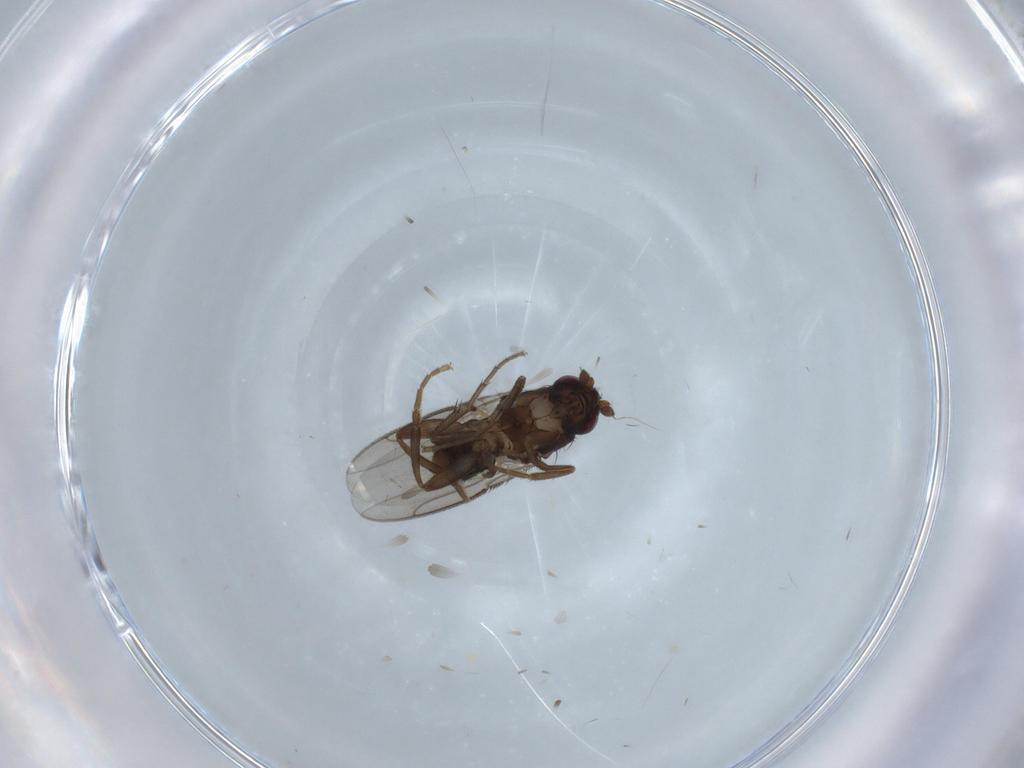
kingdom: Animalia
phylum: Arthropoda
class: Insecta
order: Diptera
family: Sphaeroceridae
